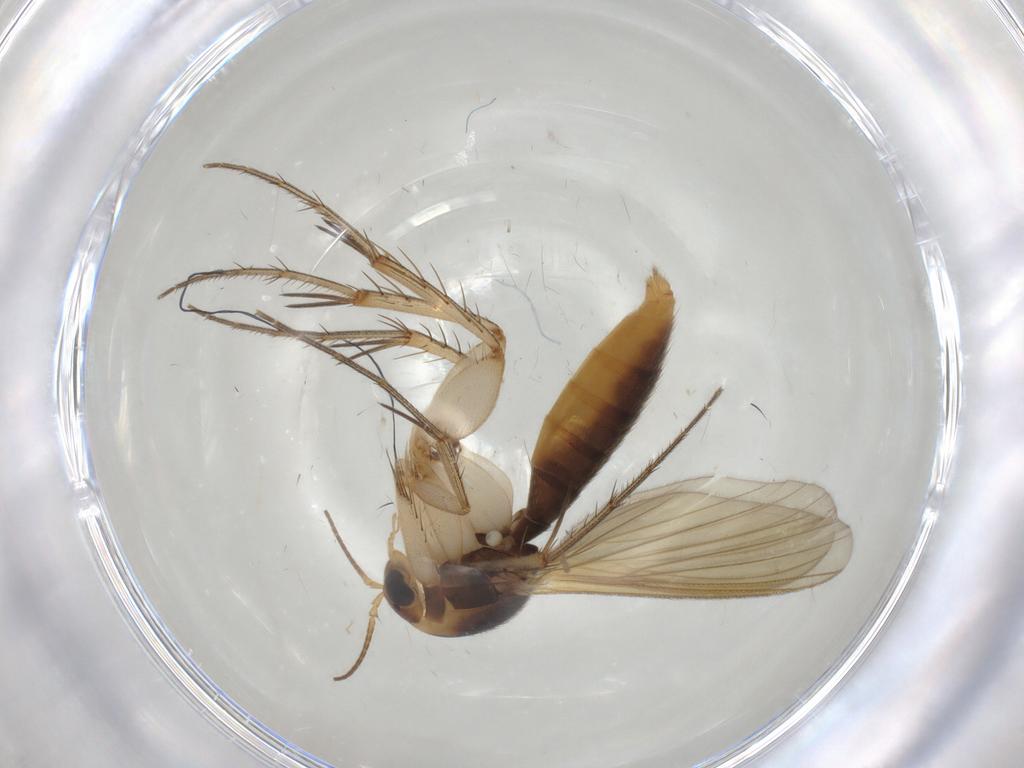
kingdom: Animalia
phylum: Arthropoda
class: Insecta
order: Diptera
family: Mycetophilidae
